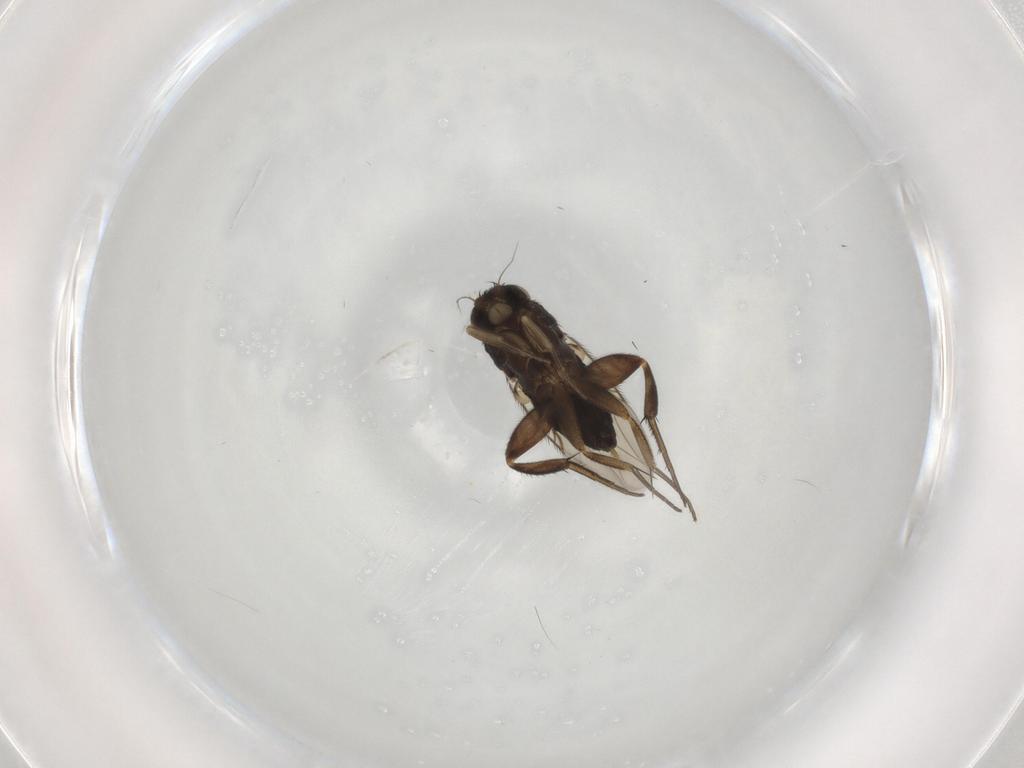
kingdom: Animalia
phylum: Arthropoda
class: Insecta
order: Diptera
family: Phoridae
